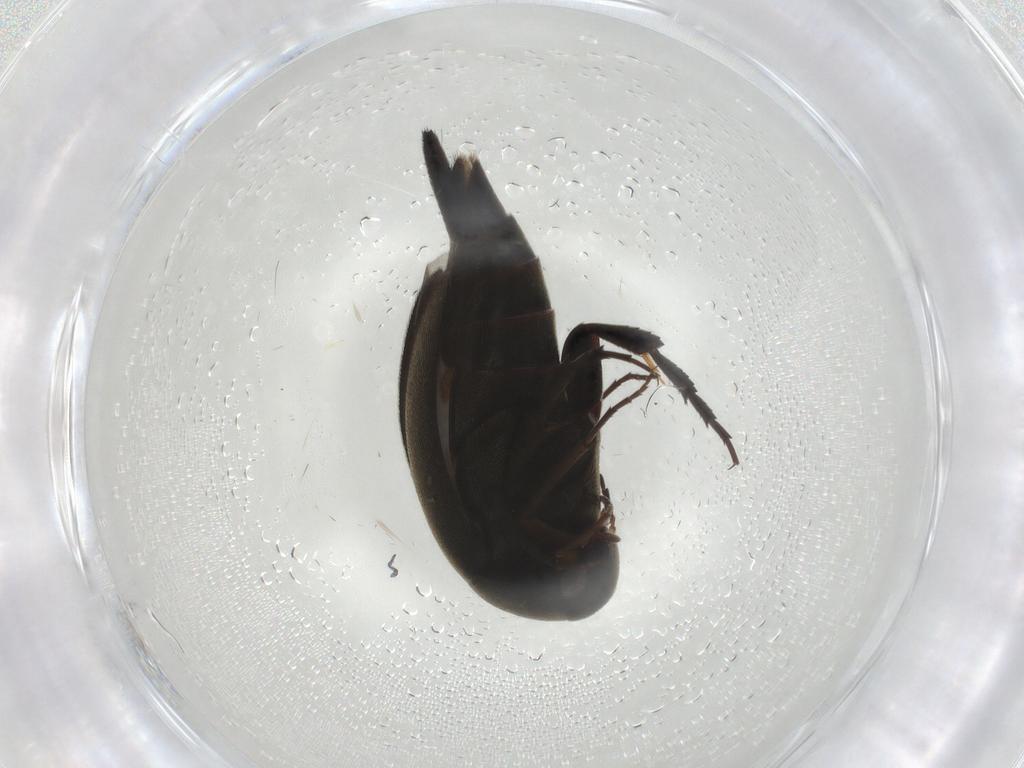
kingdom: Animalia
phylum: Arthropoda
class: Insecta
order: Coleoptera
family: Mordellidae
